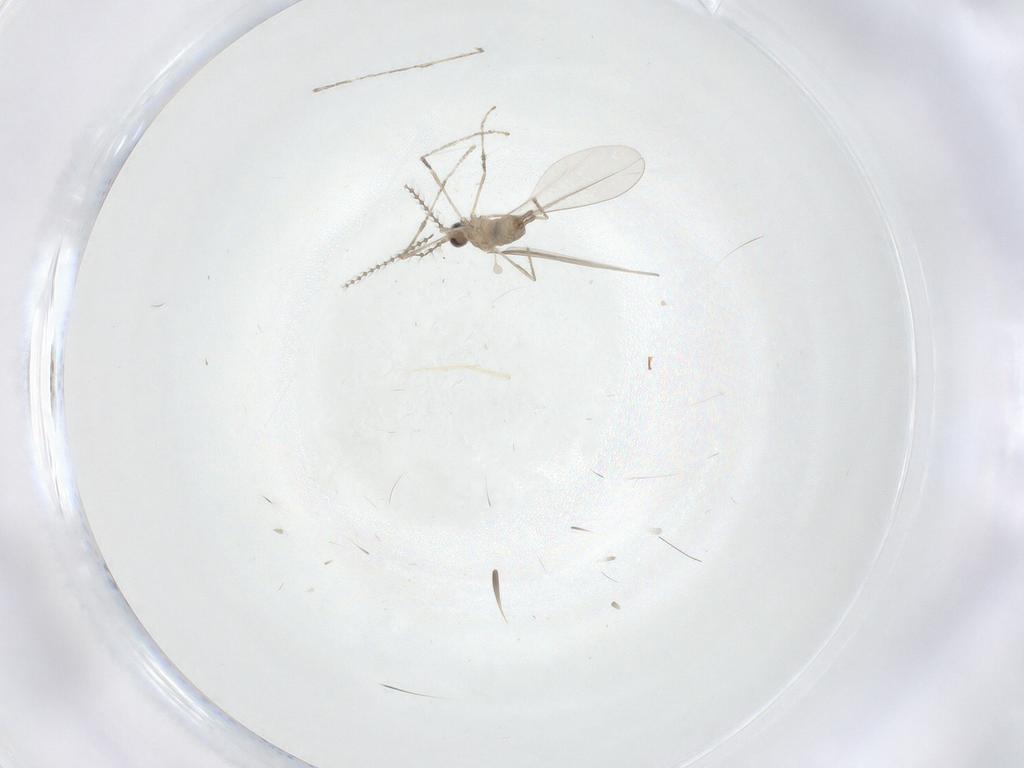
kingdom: Animalia
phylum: Arthropoda
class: Insecta
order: Diptera
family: Cecidomyiidae
